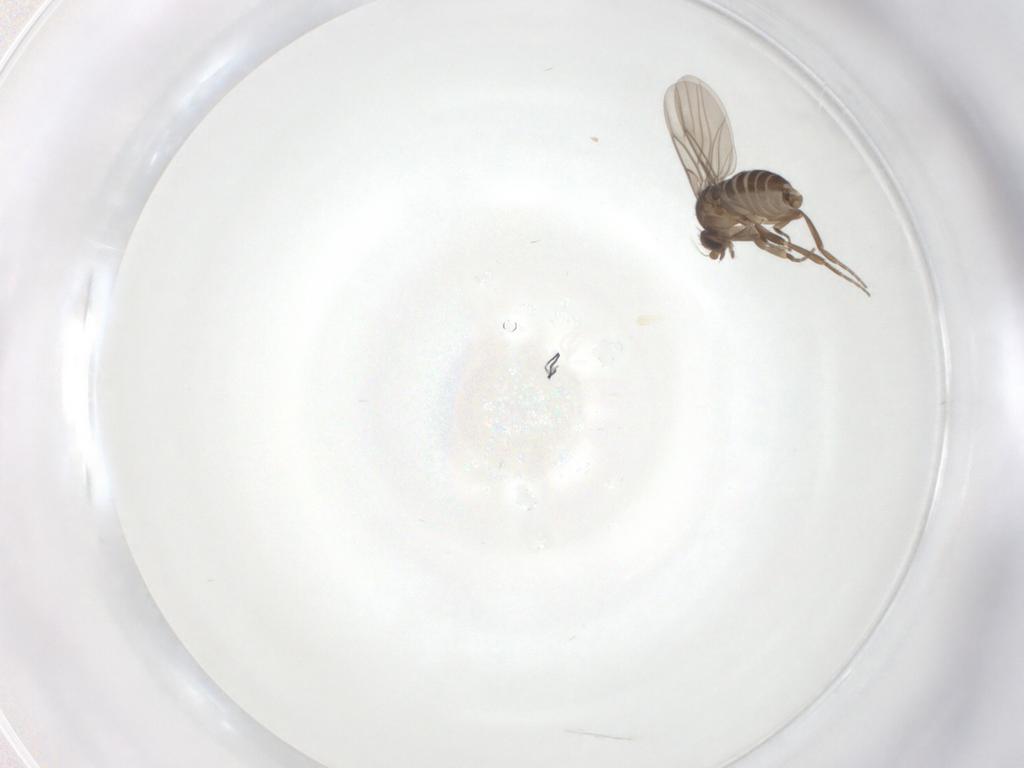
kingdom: Animalia
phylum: Arthropoda
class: Insecta
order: Diptera
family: Phoridae
